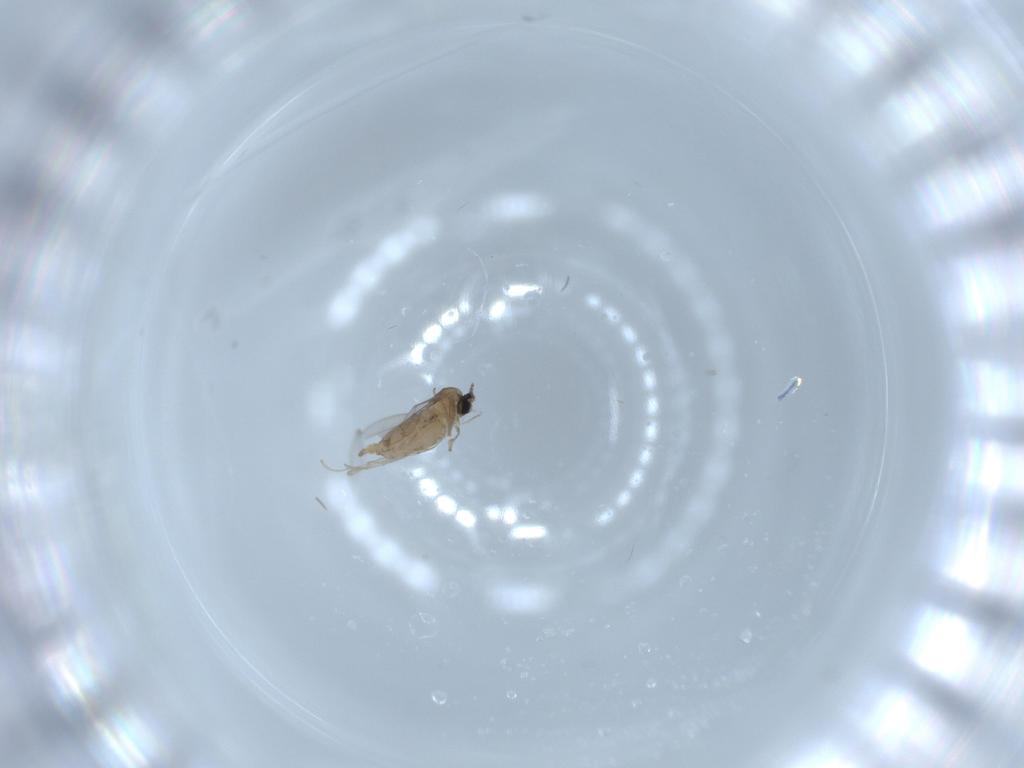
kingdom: Animalia
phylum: Arthropoda
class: Insecta
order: Diptera
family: Cecidomyiidae
